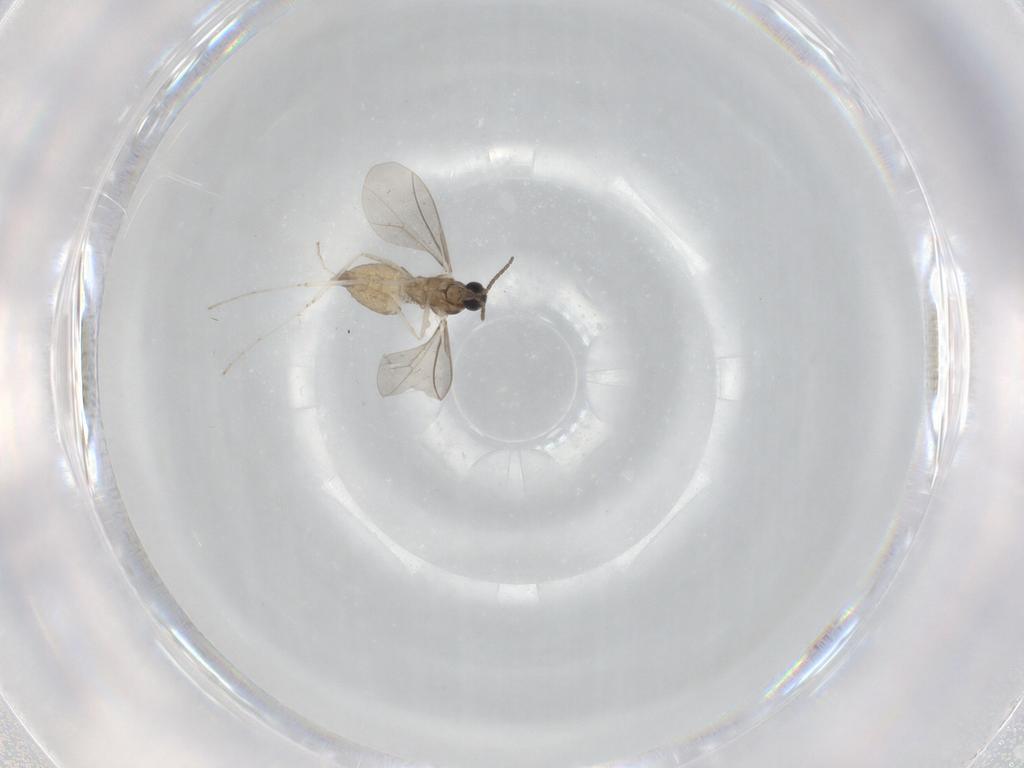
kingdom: Animalia
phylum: Arthropoda
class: Insecta
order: Diptera
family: Cecidomyiidae
